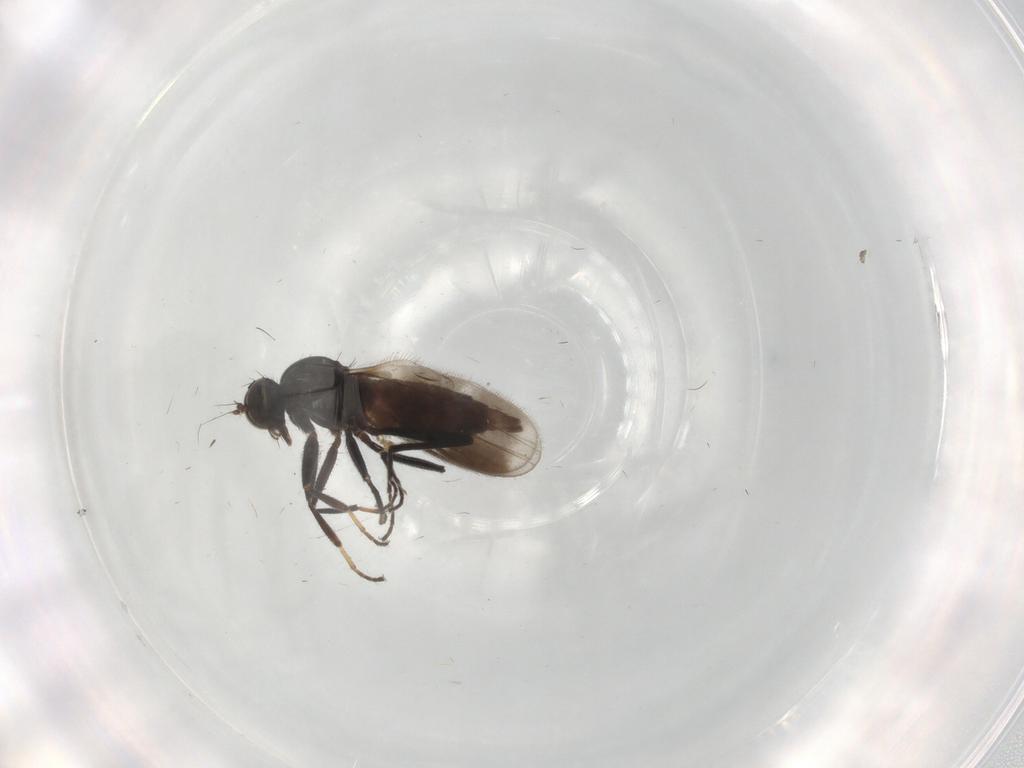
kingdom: Animalia
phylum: Arthropoda
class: Insecta
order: Diptera
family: Hybotidae
